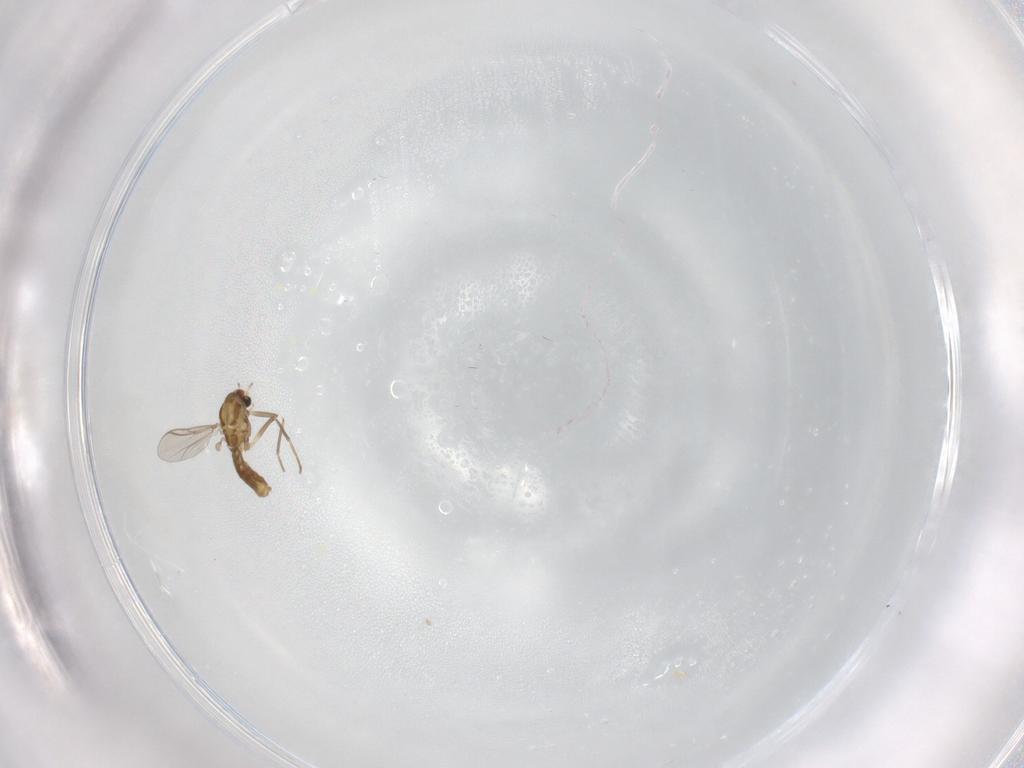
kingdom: Animalia
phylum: Arthropoda
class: Insecta
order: Diptera
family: Chironomidae
